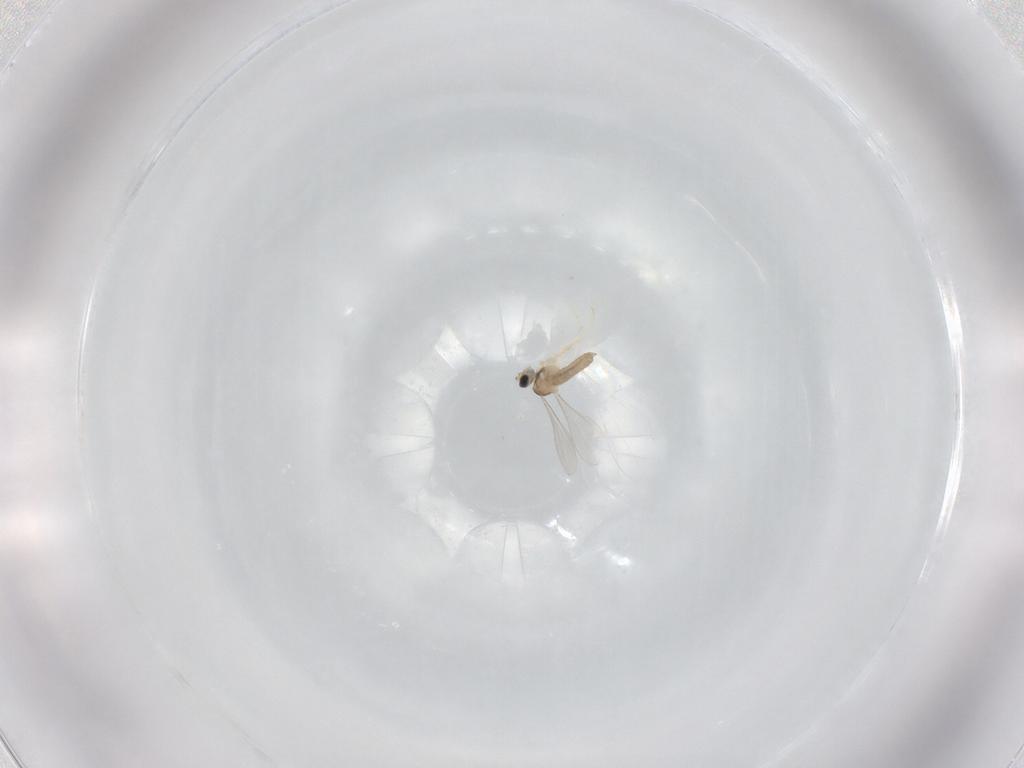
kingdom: Animalia
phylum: Arthropoda
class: Insecta
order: Diptera
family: Cecidomyiidae
